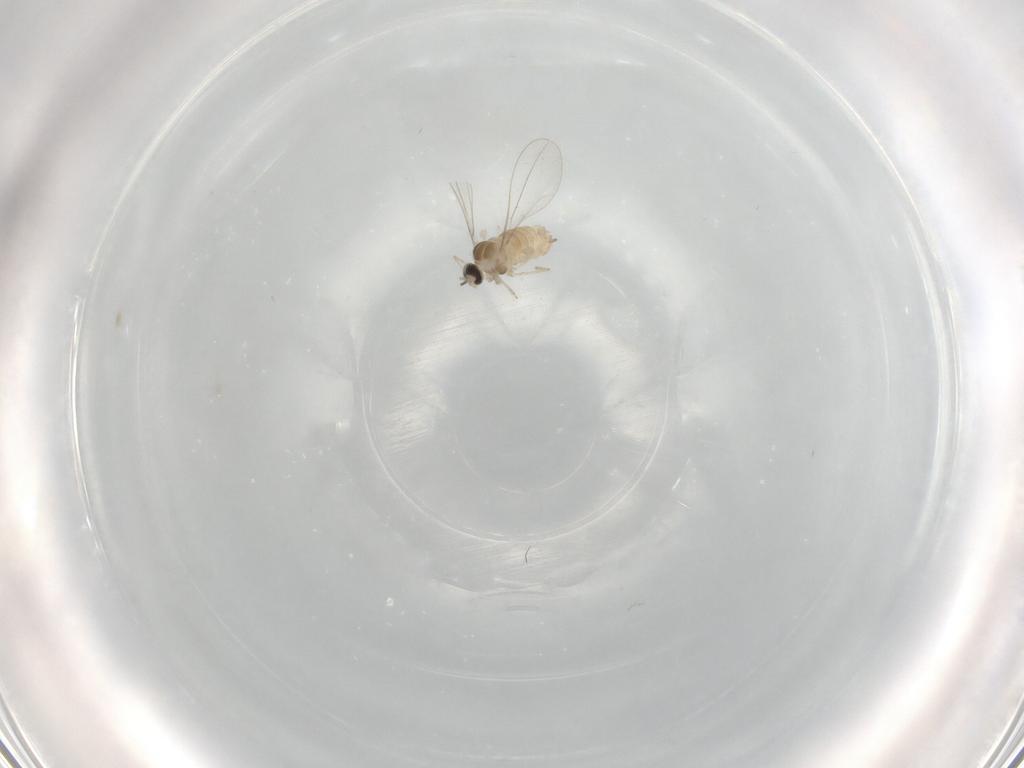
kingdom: Animalia
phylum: Arthropoda
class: Insecta
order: Diptera
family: Cecidomyiidae
